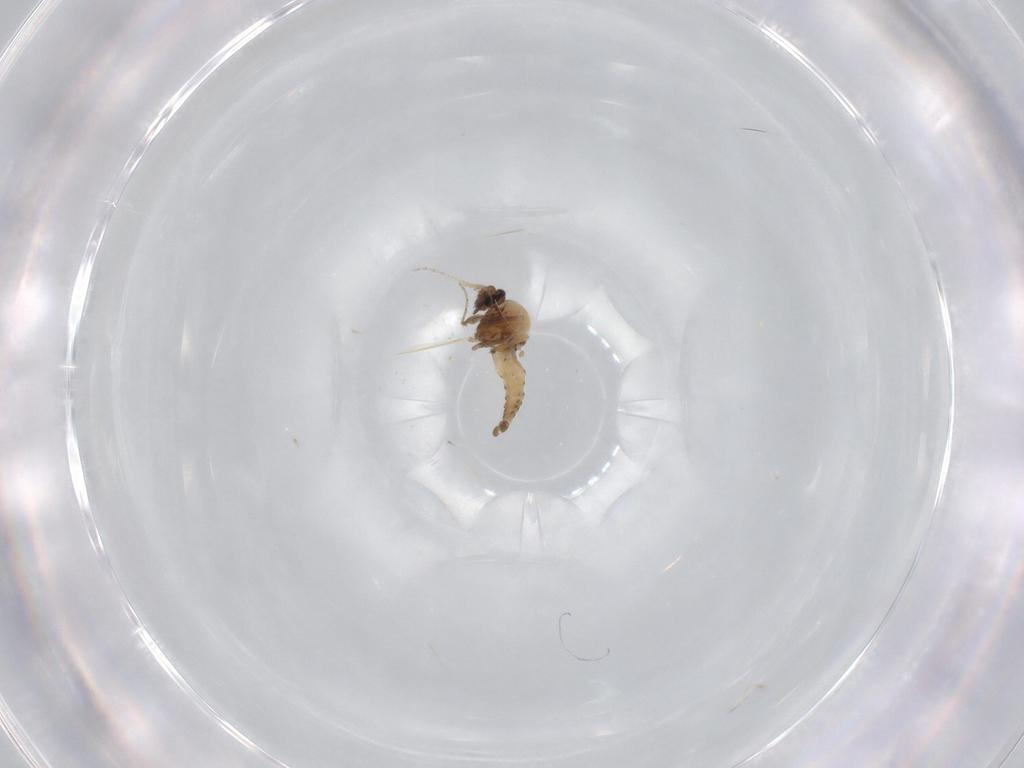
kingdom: Animalia
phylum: Arthropoda
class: Insecta
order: Diptera
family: Ceratopogonidae
